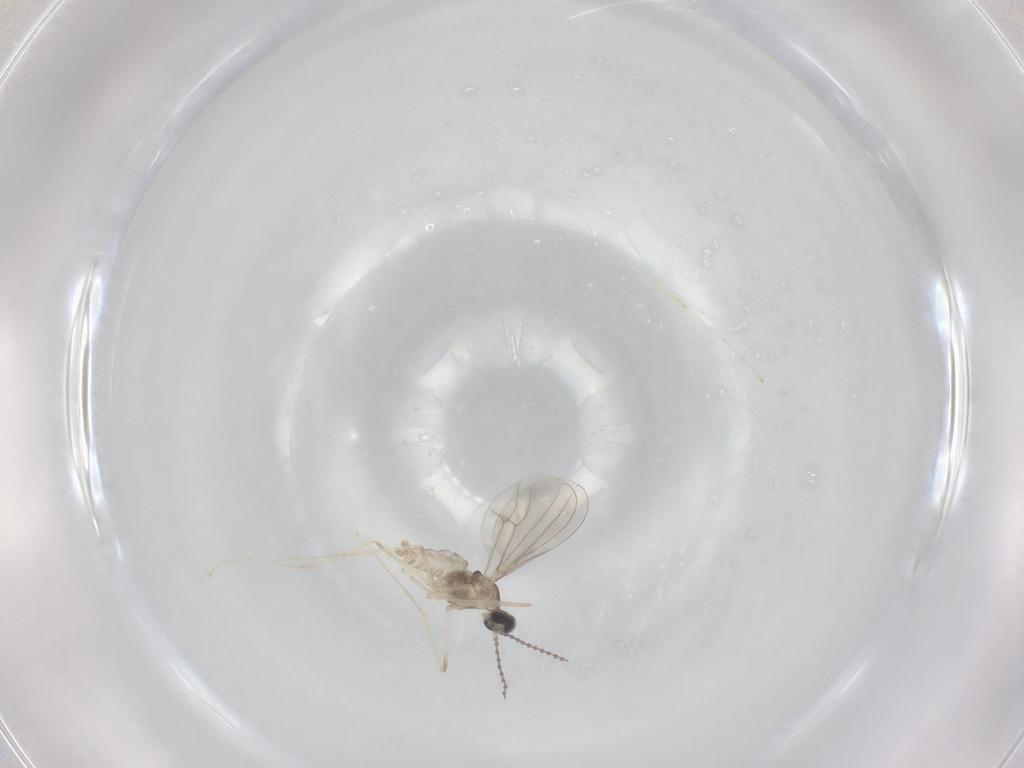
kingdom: Animalia
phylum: Arthropoda
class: Insecta
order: Diptera
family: Cecidomyiidae
